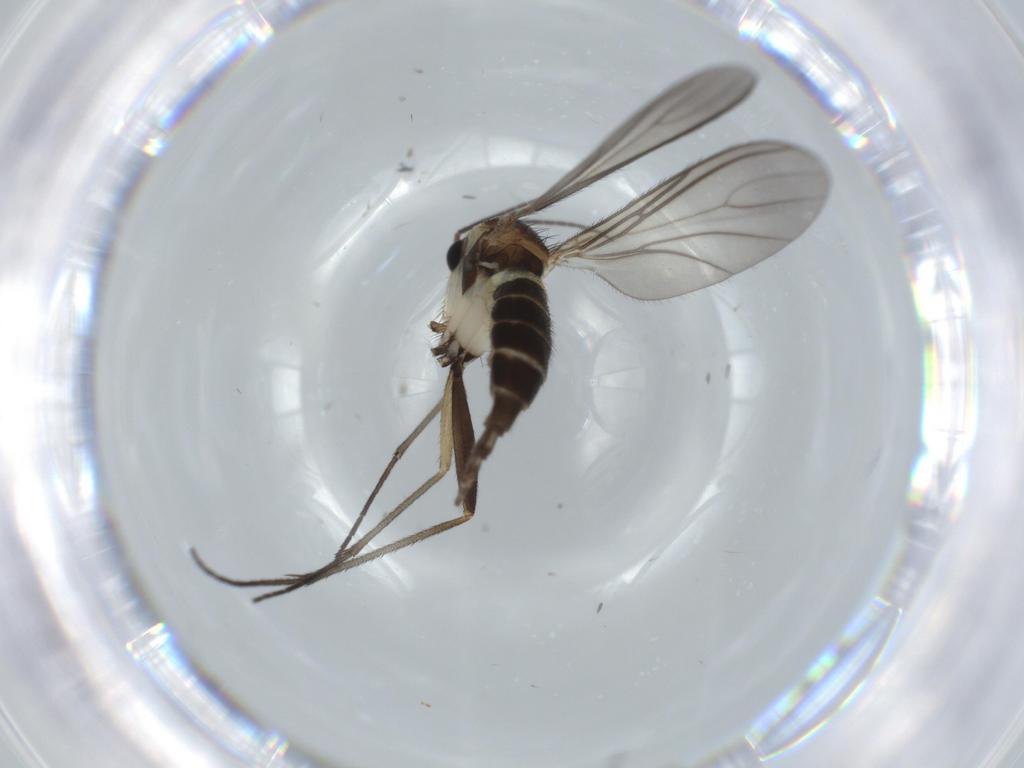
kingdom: Animalia
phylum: Arthropoda
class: Insecta
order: Diptera
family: Sciaridae
